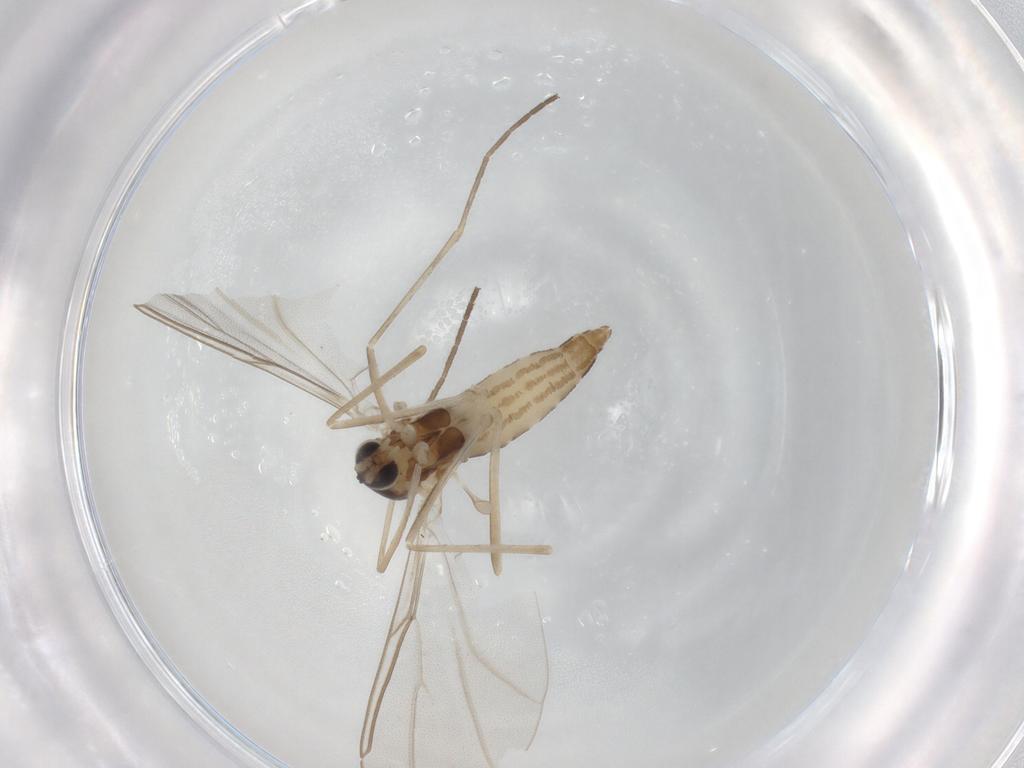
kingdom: Animalia
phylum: Arthropoda
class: Insecta
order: Diptera
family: Cecidomyiidae
